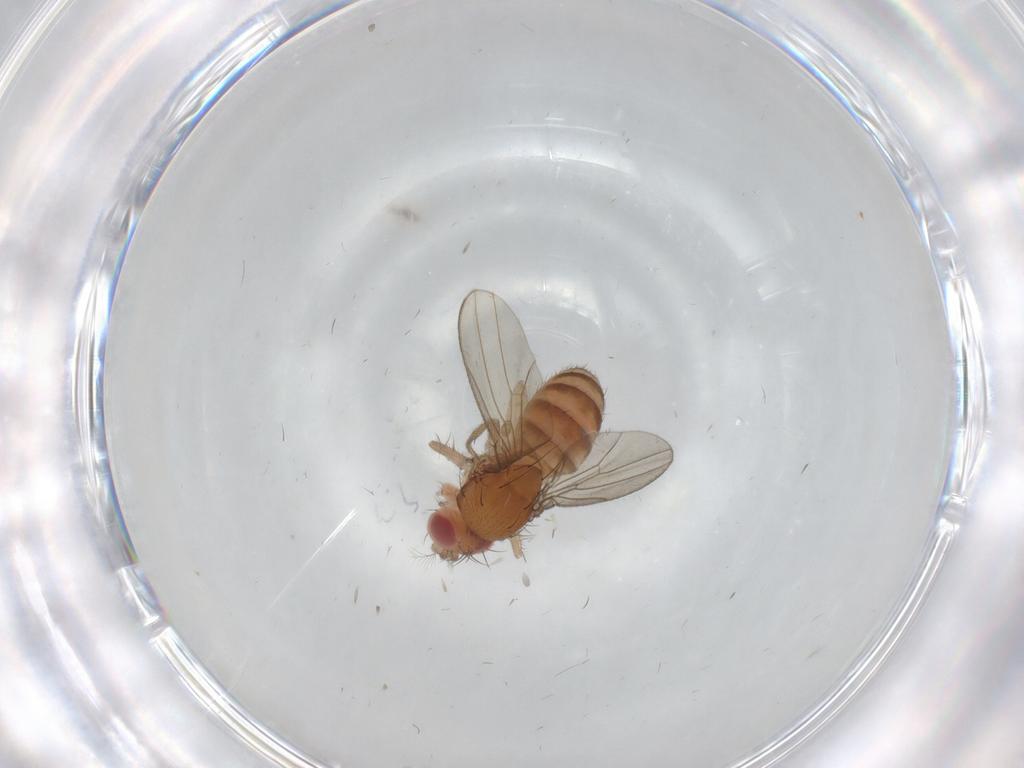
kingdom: Animalia
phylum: Arthropoda
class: Insecta
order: Diptera
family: Drosophilidae
